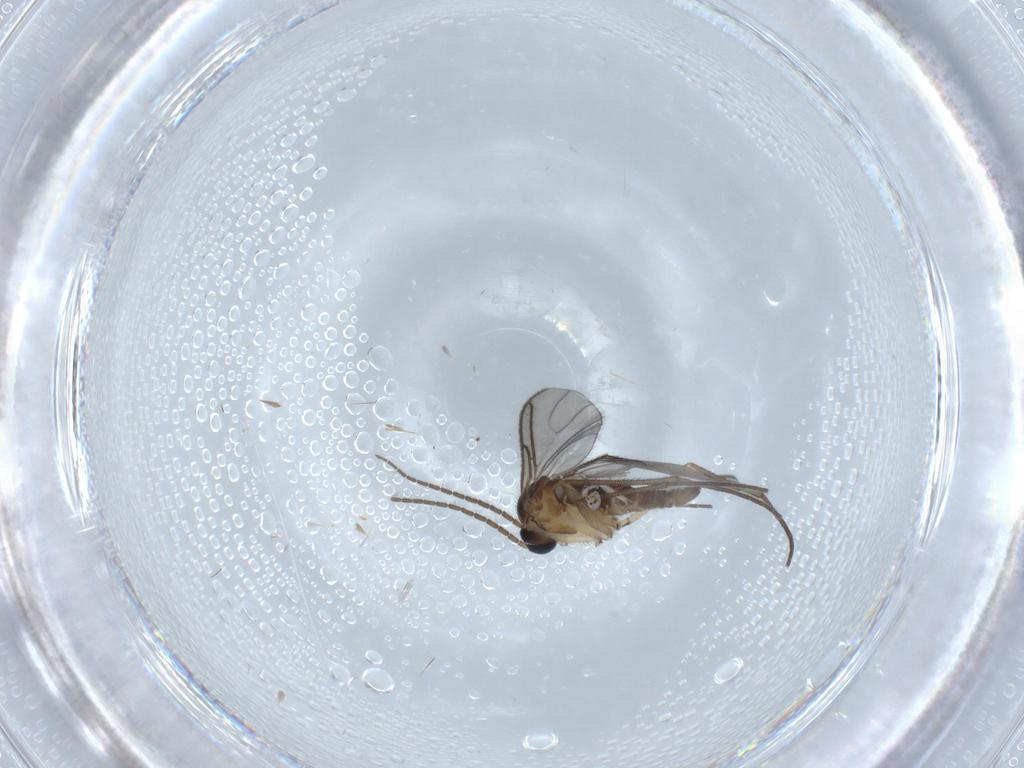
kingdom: Animalia
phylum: Arthropoda
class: Insecta
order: Diptera
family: Sciaridae
